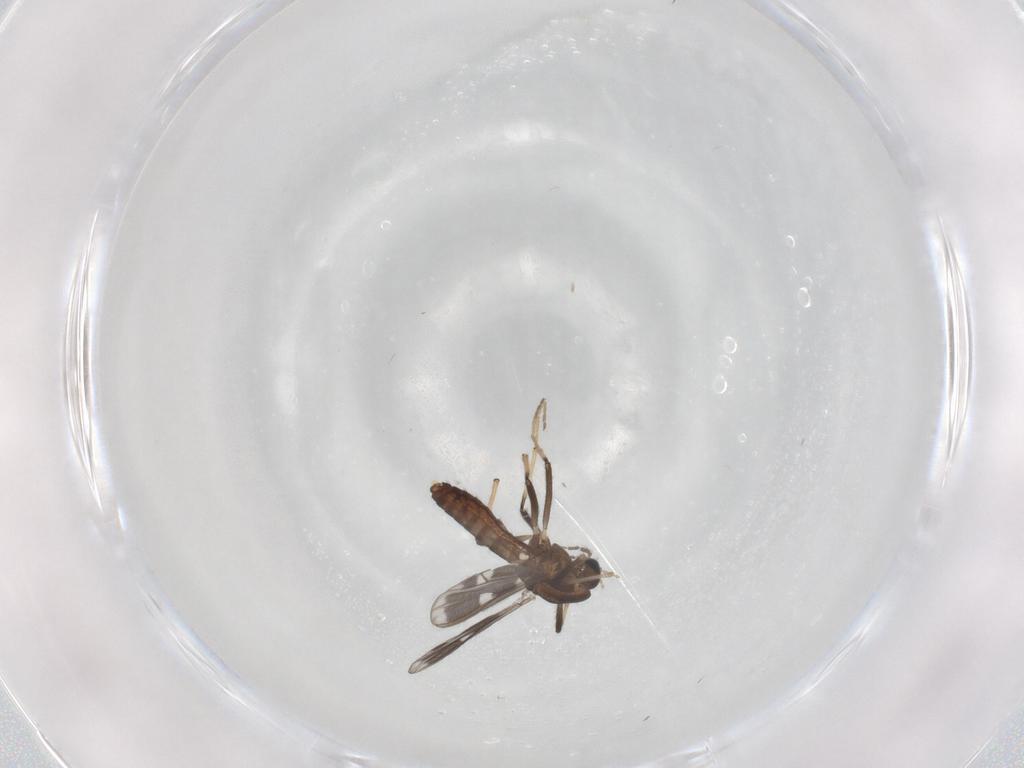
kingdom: Animalia
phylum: Arthropoda
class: Insecta
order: Diptera
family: Chironomidae
